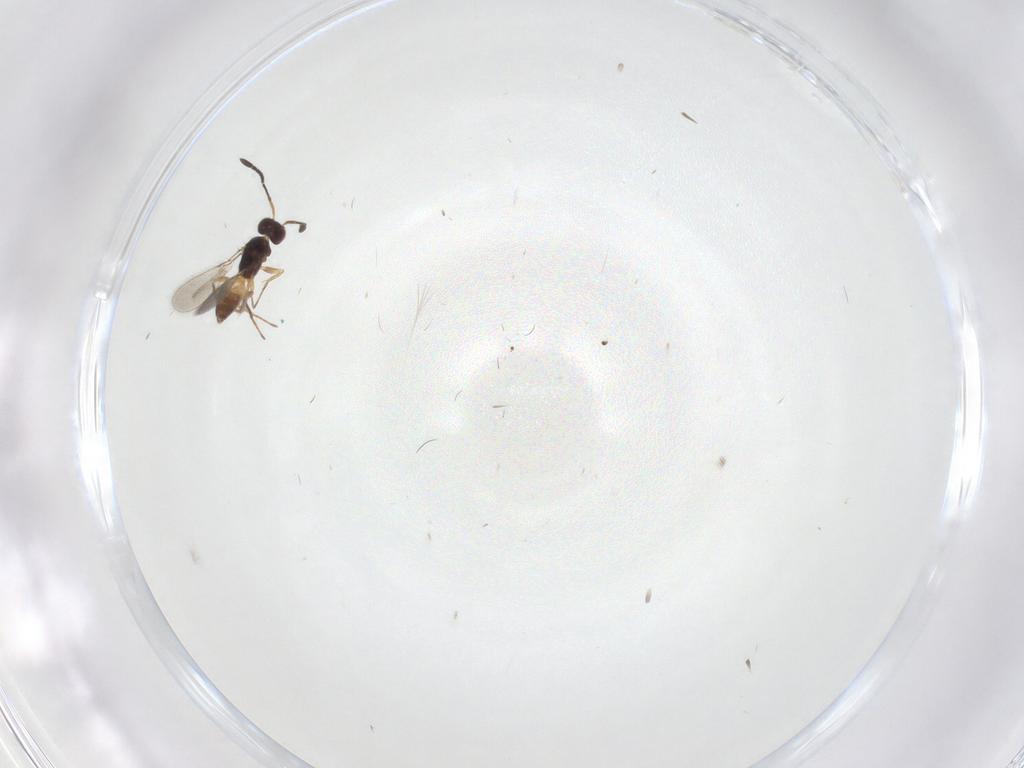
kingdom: Animalia
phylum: Arthropoda
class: Insecta
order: Hymenoptera
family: Mymaridae
